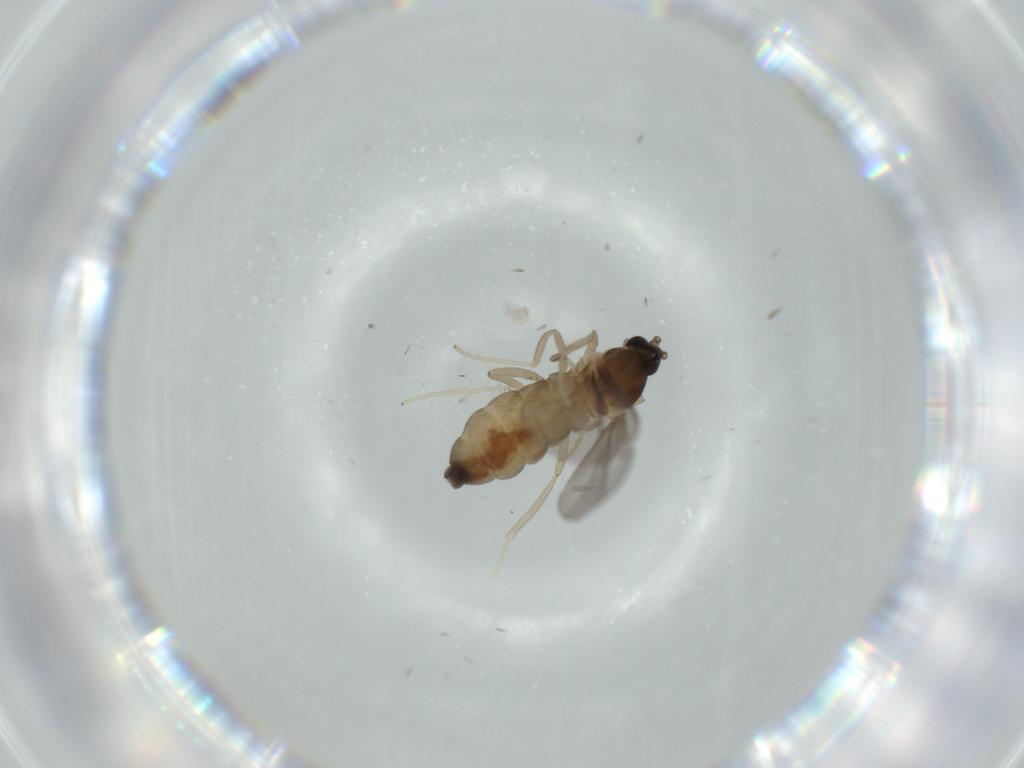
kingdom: Animalia
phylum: Arthropoda
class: Insecta
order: Diptera
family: Cecidomyiidae
